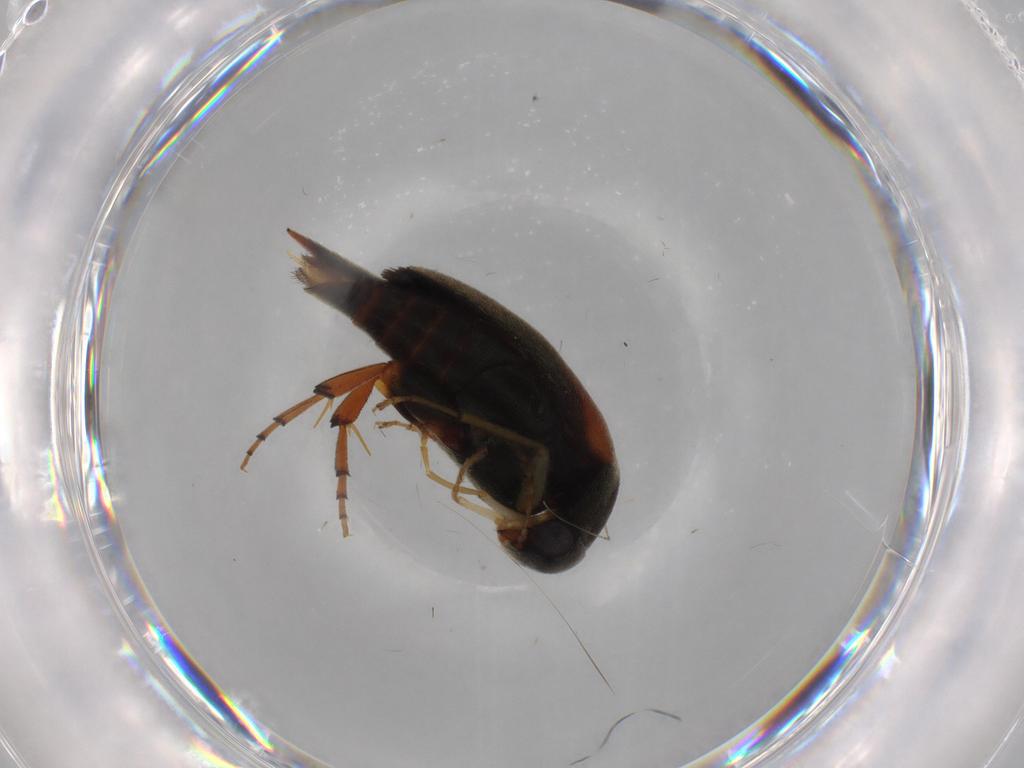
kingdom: Animalia
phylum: Arthropoda
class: Insecta
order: Coleoptera
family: Mordellidae
